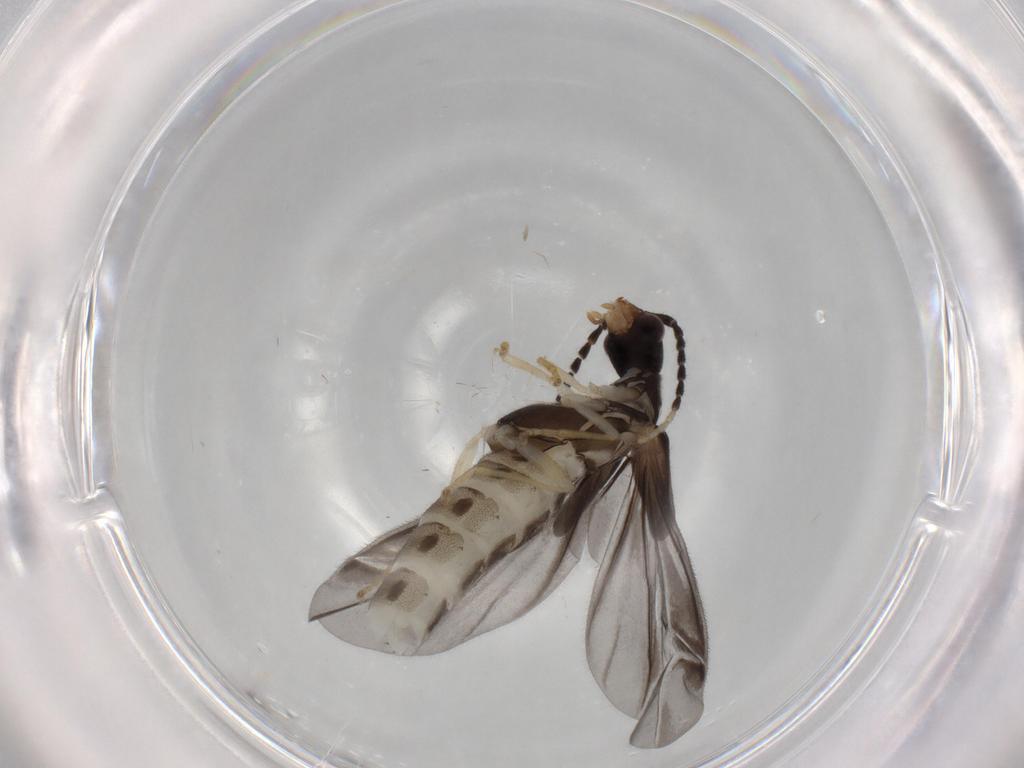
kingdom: Animalia
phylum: Arthropoda
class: Insecta
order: Coleoptera
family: Cantharidae
